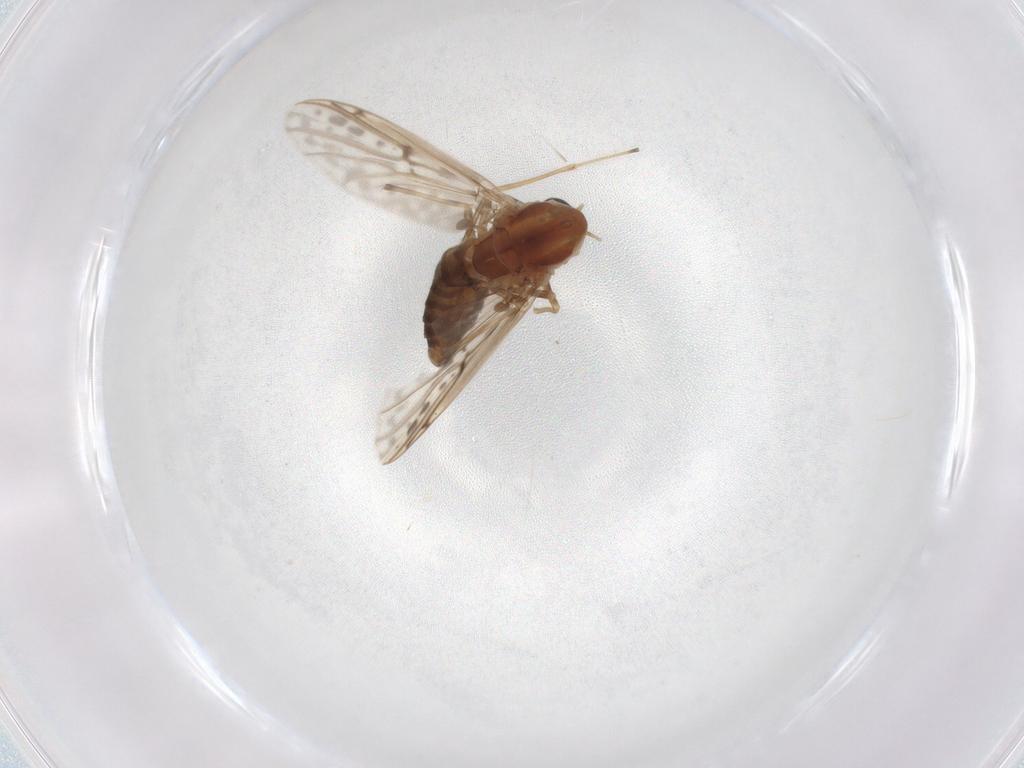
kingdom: Animalia
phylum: Arthropoda
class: Insecta
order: Diptera
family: Chironomidae
